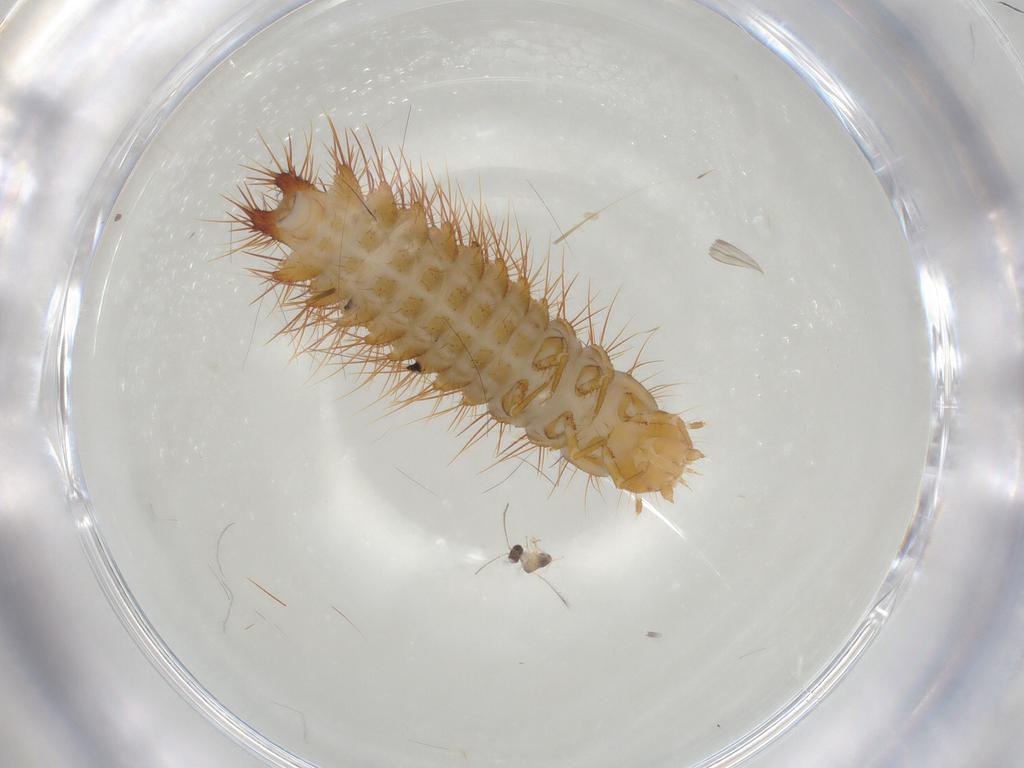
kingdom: Animalia
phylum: Arthropoda
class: Insecta
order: Coleoptera
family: Elateridae
